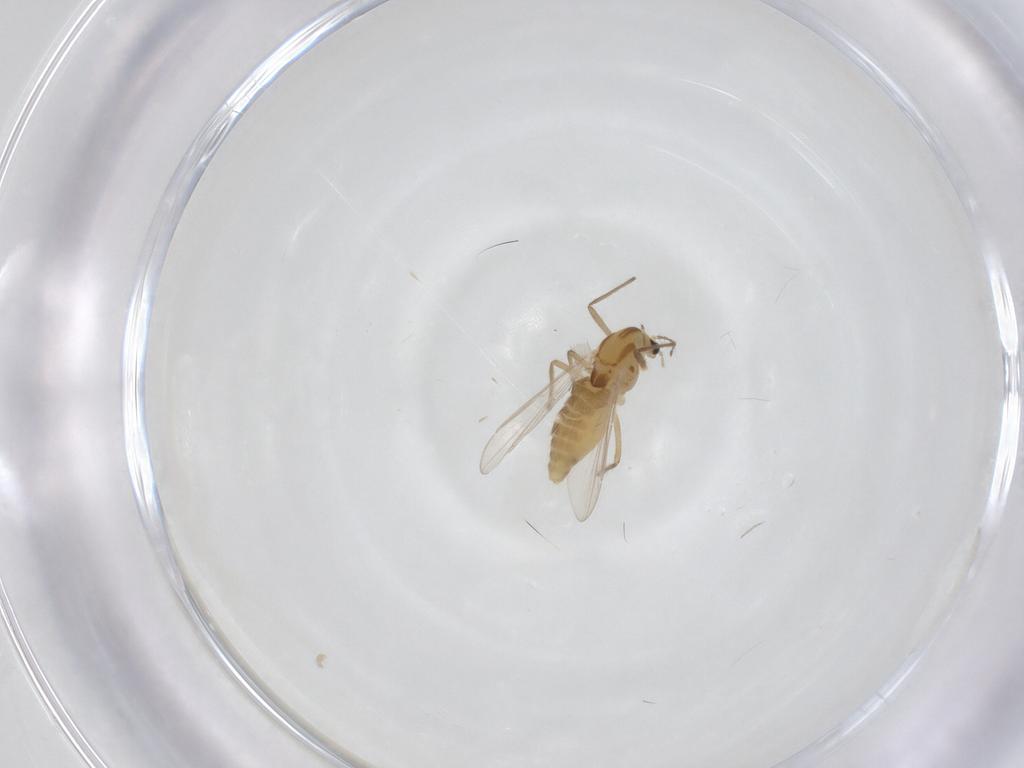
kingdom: Animalia
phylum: Arthropoda
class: Insecta
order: Diptera
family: Chironomidae
